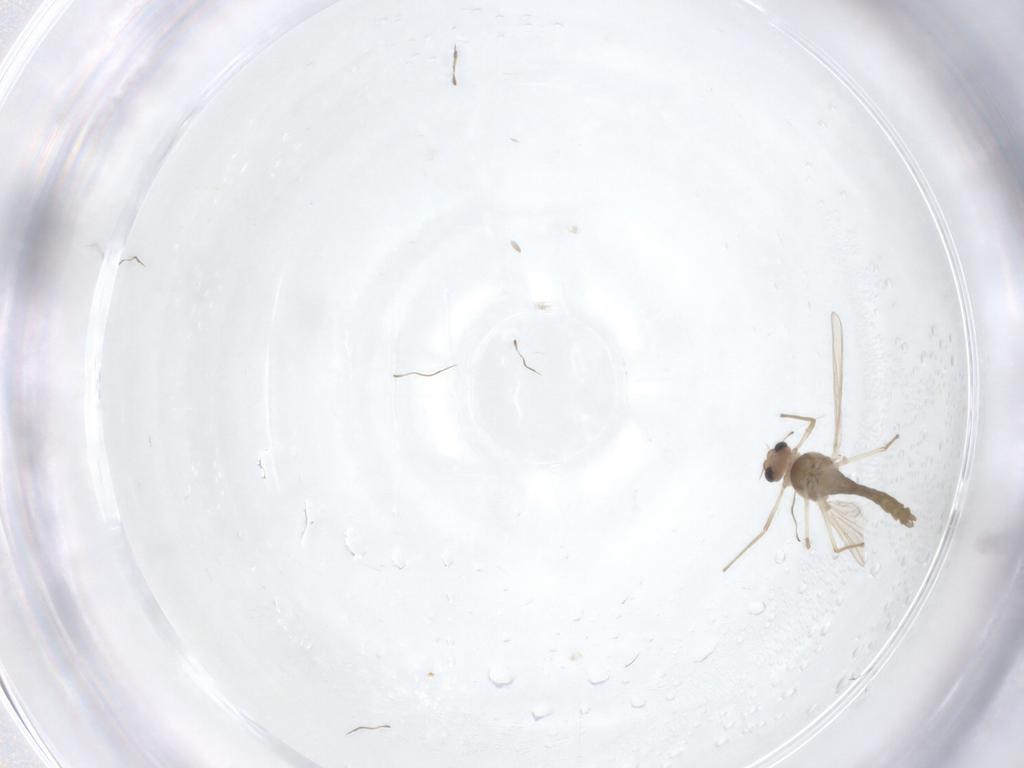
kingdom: Animalia
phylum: Arthropoda
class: Insecta
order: Diptera
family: Chironomidae
